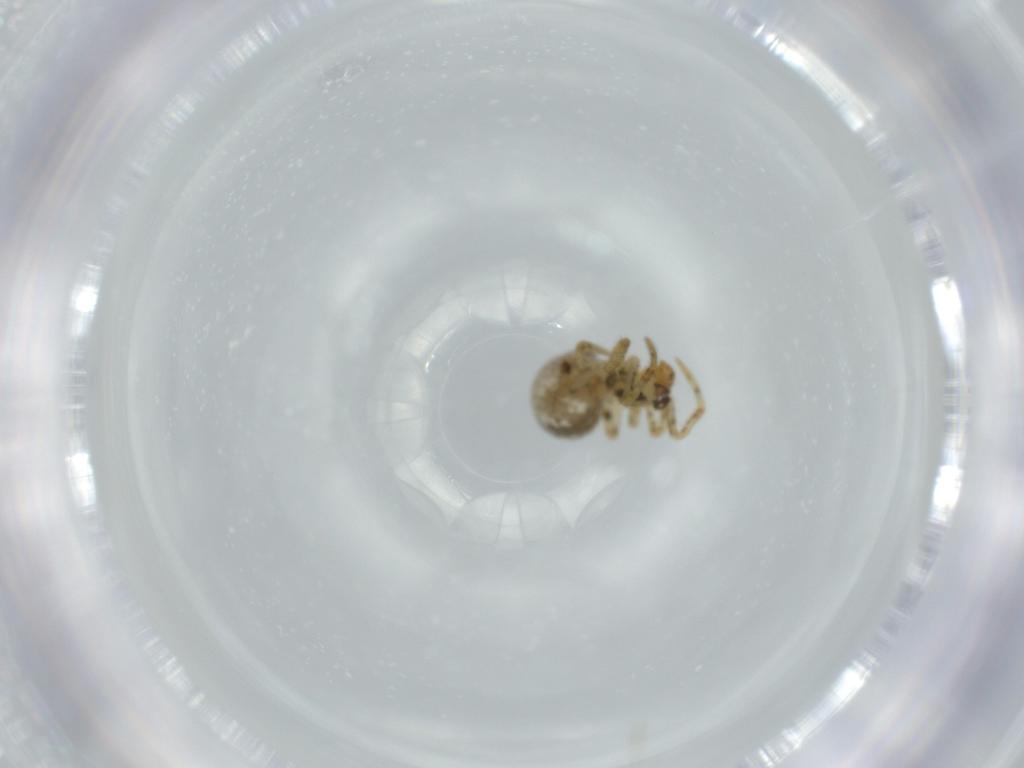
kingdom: Animalia
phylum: Arthropoda
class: Arachnida
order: Araneae
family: Theridiidae
